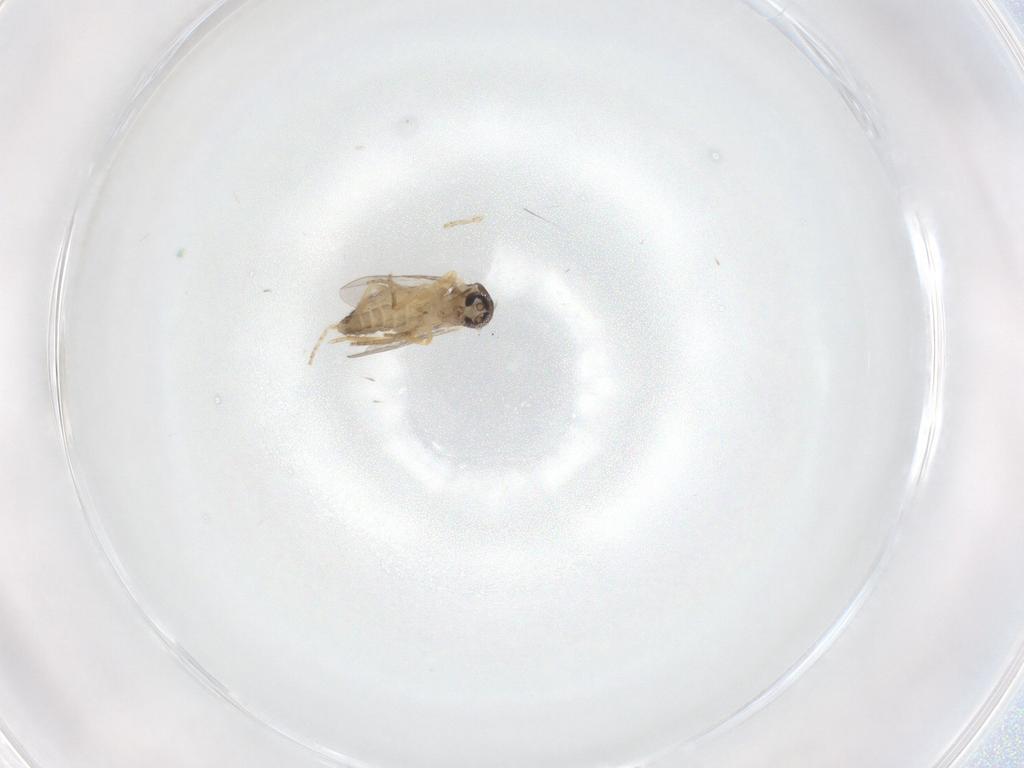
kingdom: Animalia
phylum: Arthropoda
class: Insecta
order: Diptera
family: Ceratopogonidae
